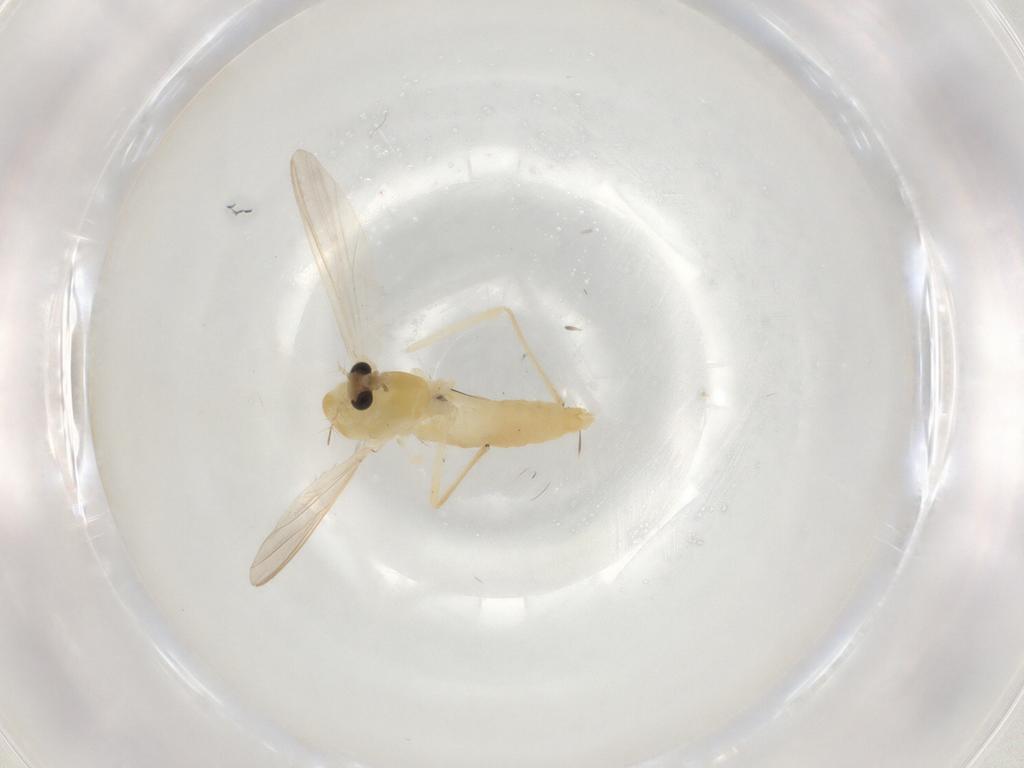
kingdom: Animalia
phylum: Arthropoda
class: Insecta
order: Diptera
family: Chironomidae
